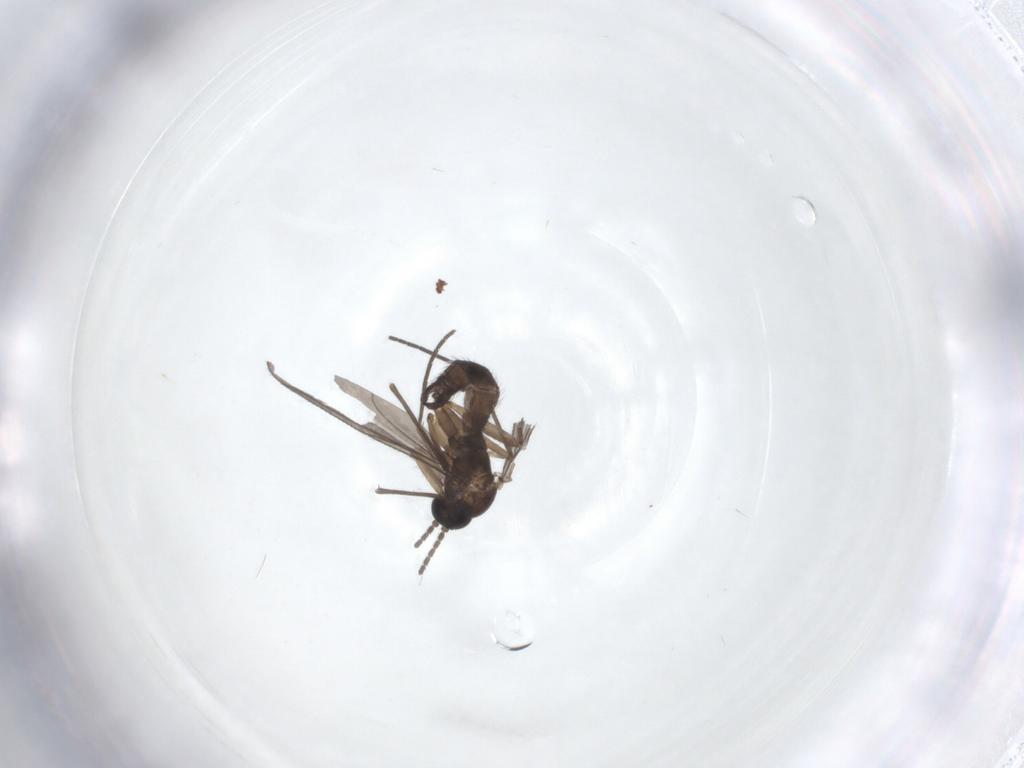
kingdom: Animalia
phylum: Arthropoda
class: Insecta
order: Diptera
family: Sciaridae
